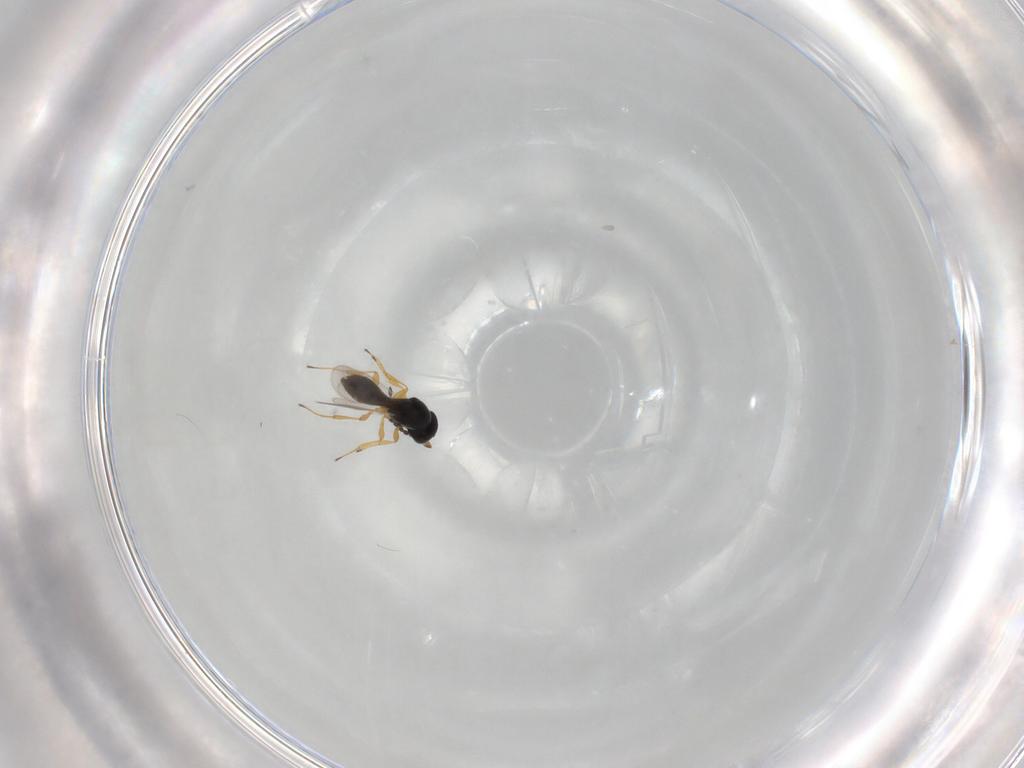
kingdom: Animalia
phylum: Arthropoda
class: Insecta
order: Hymenoptera
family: Platygastridae
